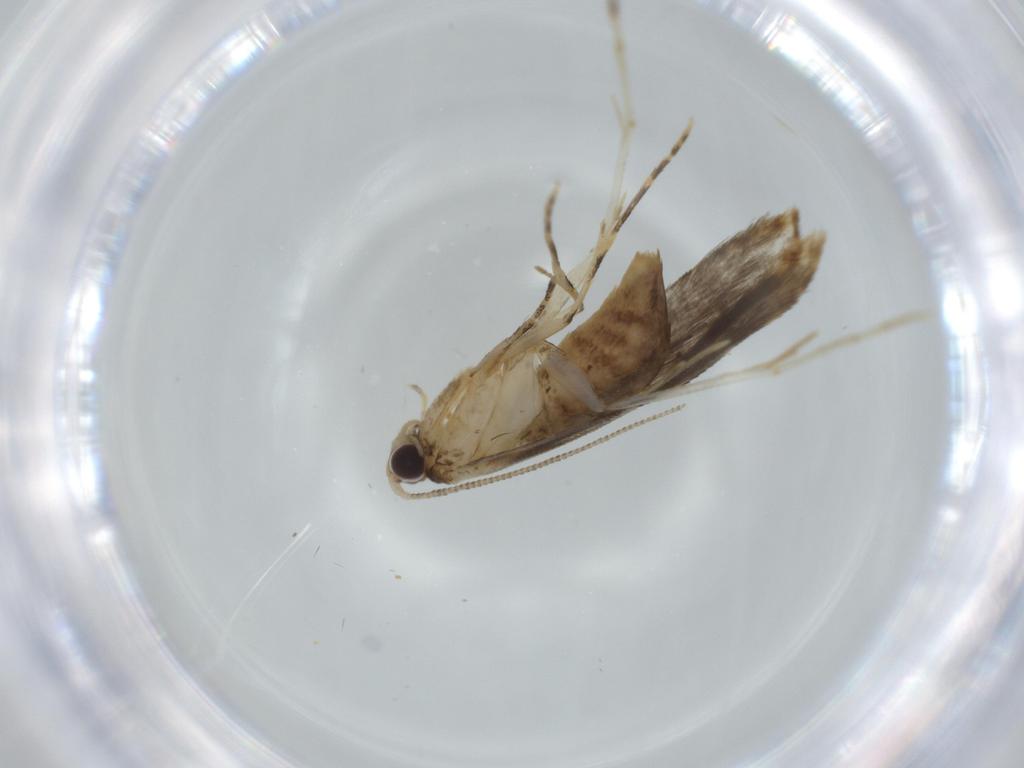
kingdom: Animalia
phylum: Arthropoda
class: Insecta
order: Lepidoptera
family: Tineidae
